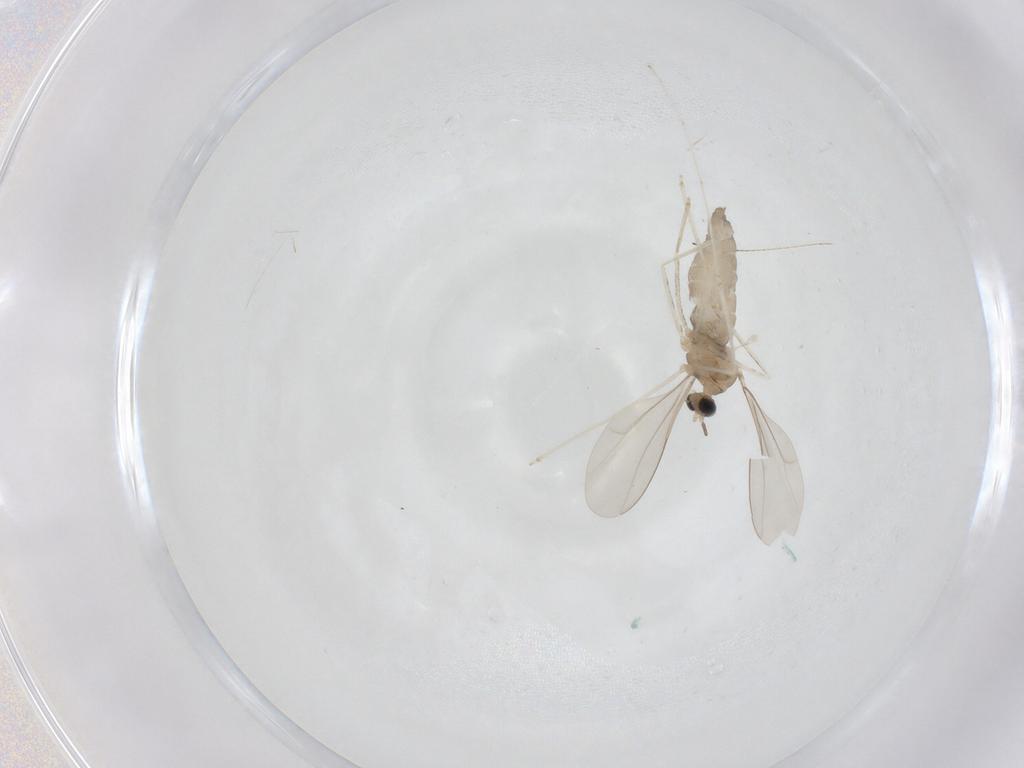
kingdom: Animalia
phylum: Arthropoda
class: Insecta
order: Diptera
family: Cecidomyiidae
